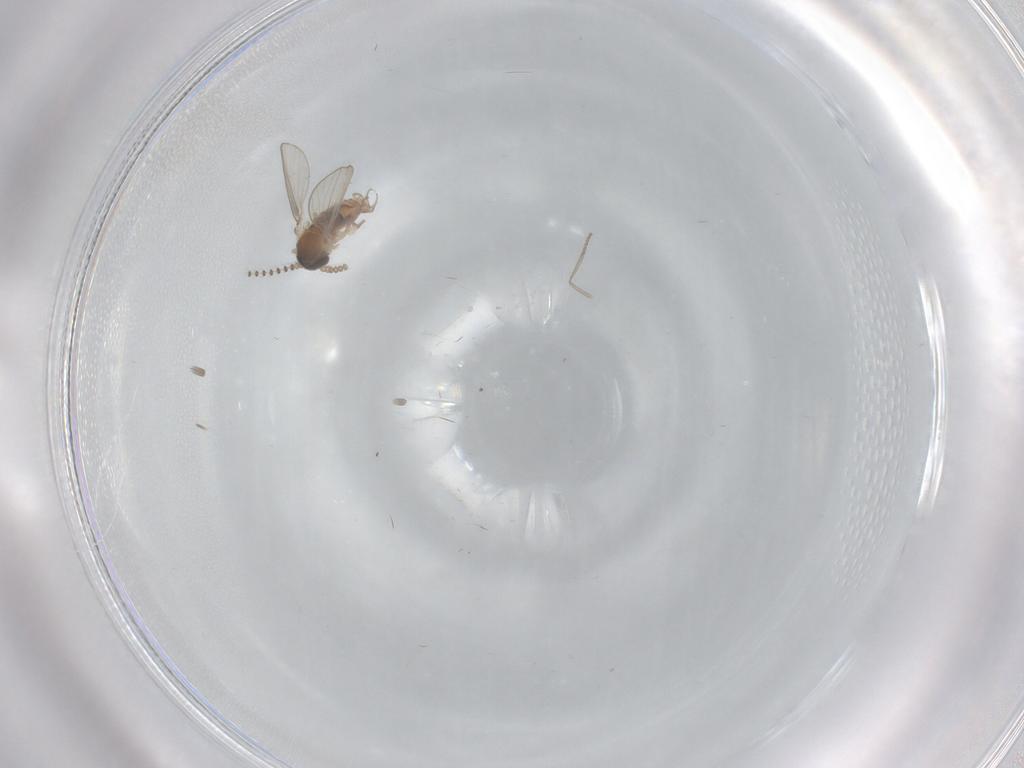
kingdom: Animalia
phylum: Arthropoda
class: Insecta
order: Diptera
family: Psychodidae
